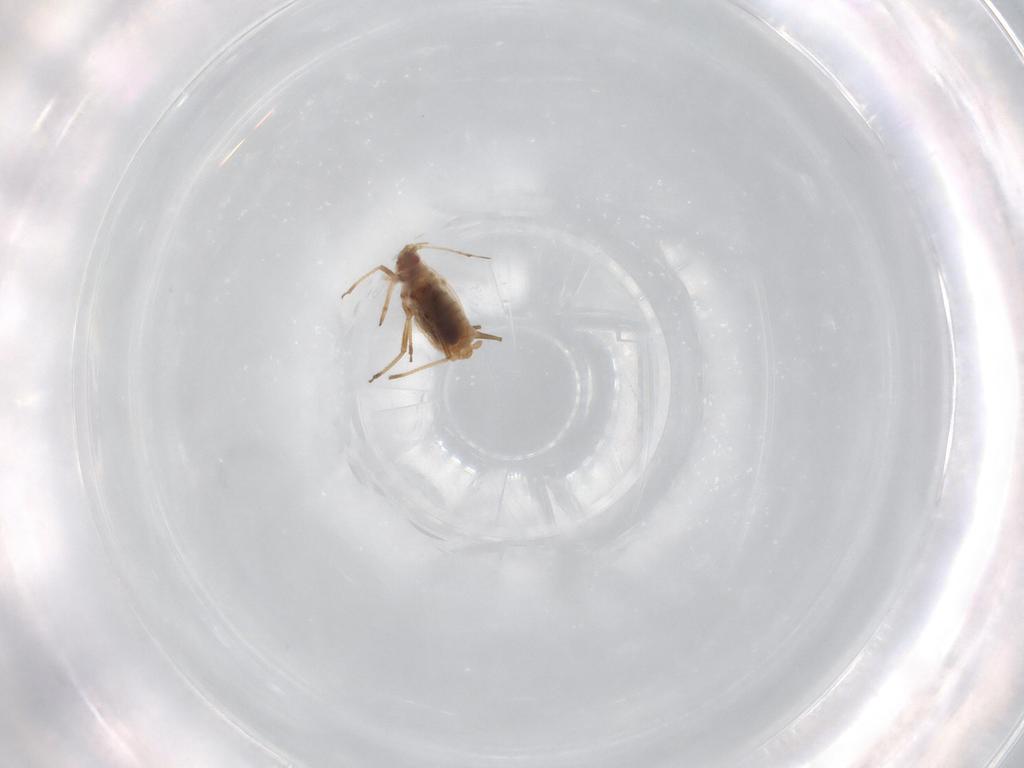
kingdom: Animalia
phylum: Arthropoda
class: Insecta
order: Hemiptera
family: Aphididae
